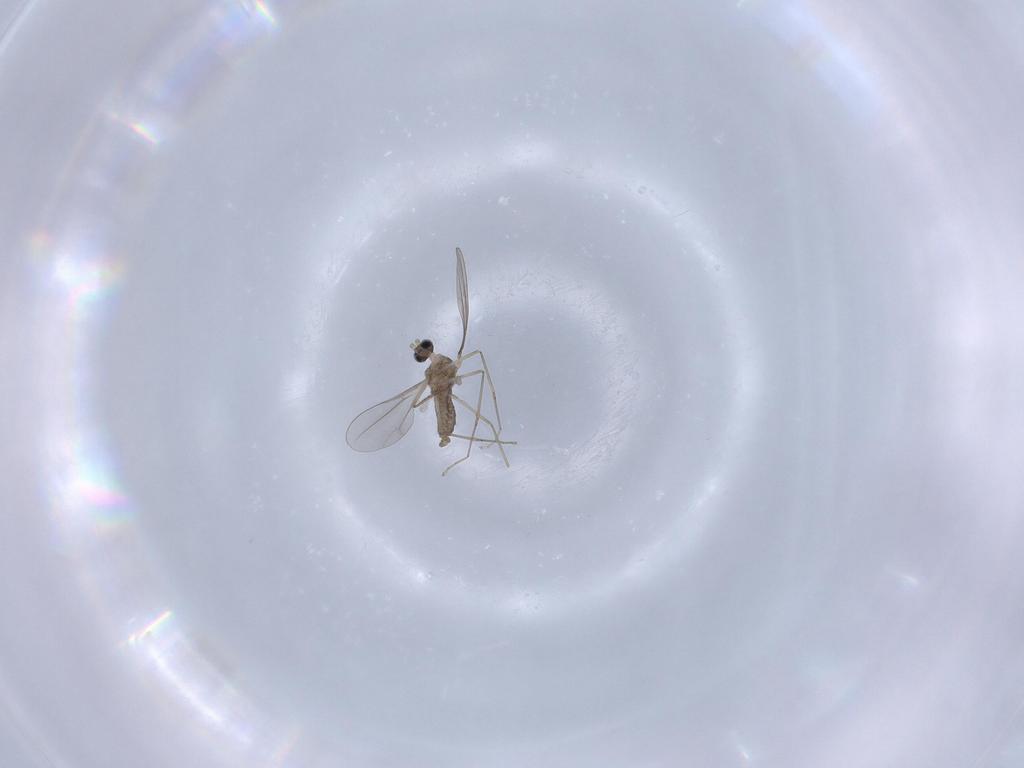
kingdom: Animalia
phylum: Arthropoda
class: Insecta
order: Diptera
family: Cecidomyiidae
